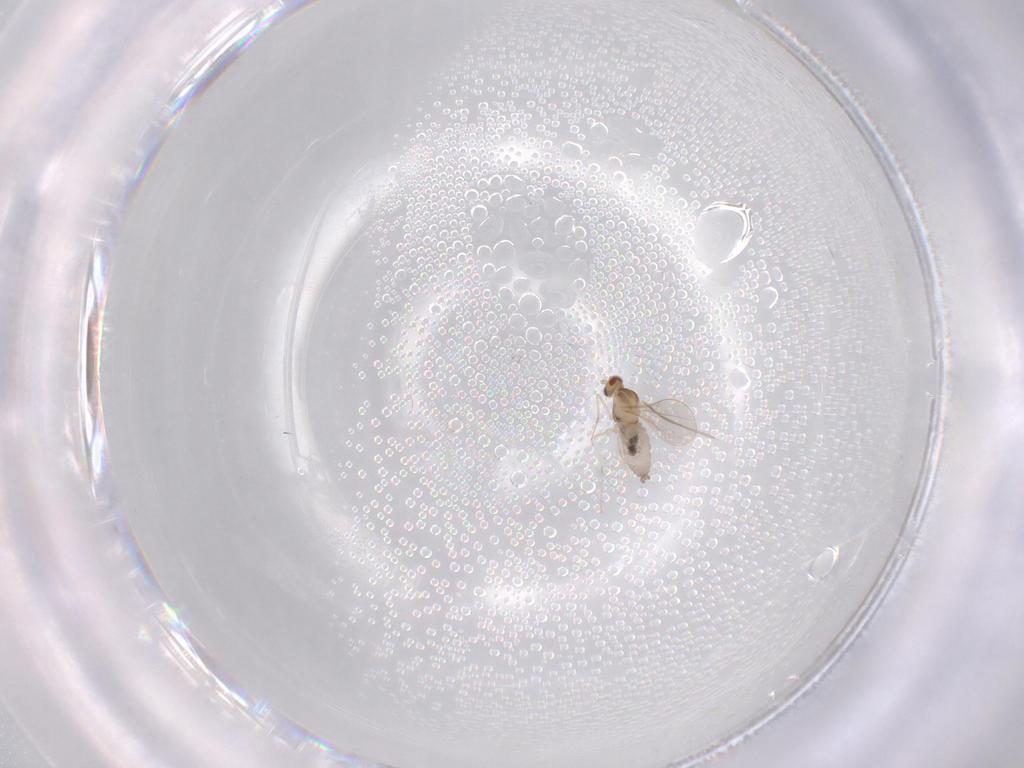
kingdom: Animalia
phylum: Arthropoda
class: Insecta
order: Diptera
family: Cecidomyiidae
